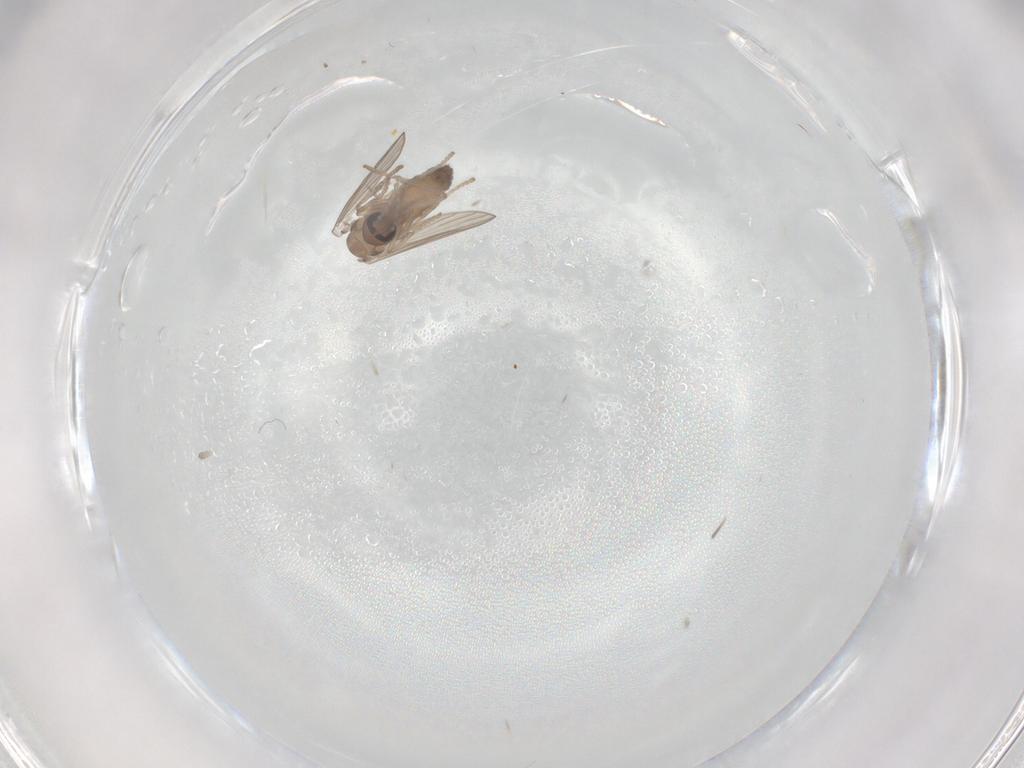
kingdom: Animalia
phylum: Arthropoda
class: Insecta
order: Diptera
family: Psychodidae
